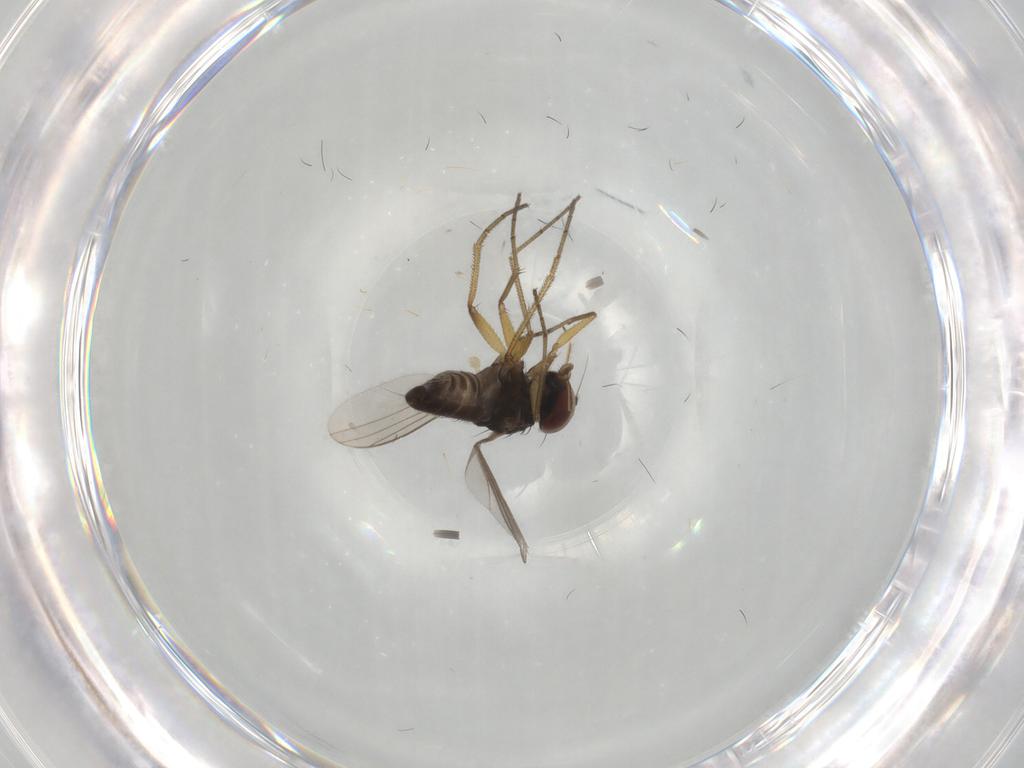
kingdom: Animalia
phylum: Arthropoda
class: Insecta
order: Diptera
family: Dolichopodidae
